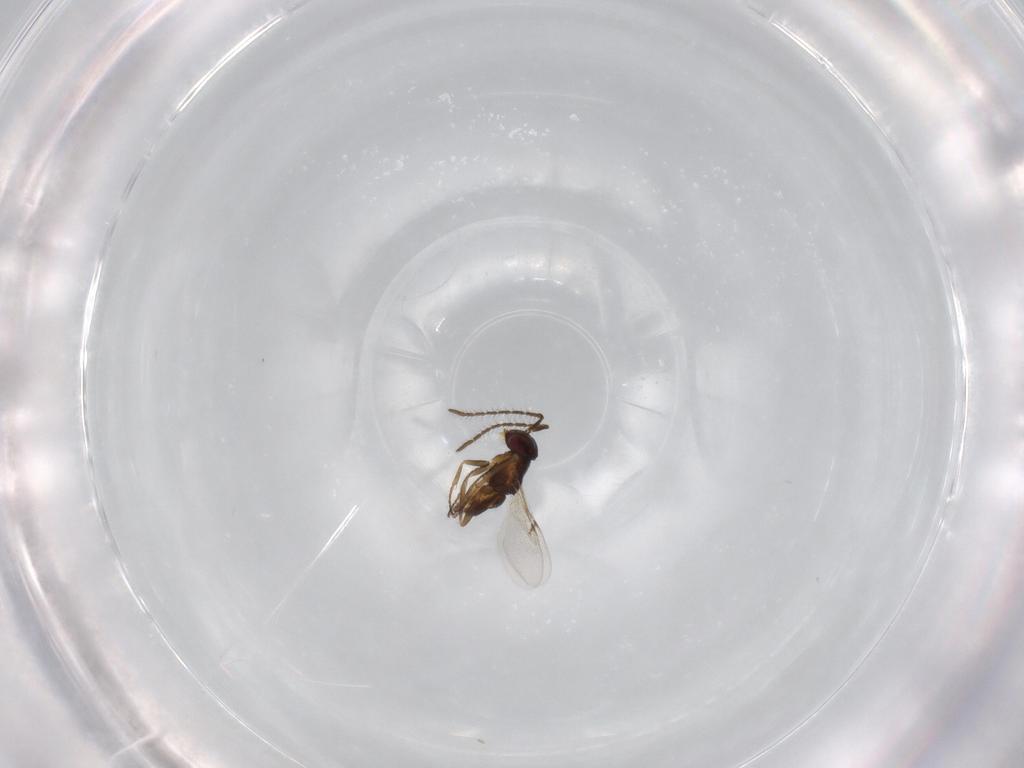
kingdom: Animalia
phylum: Arthropoda
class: Insecta
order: Hymenoptera
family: Encyrtidae
